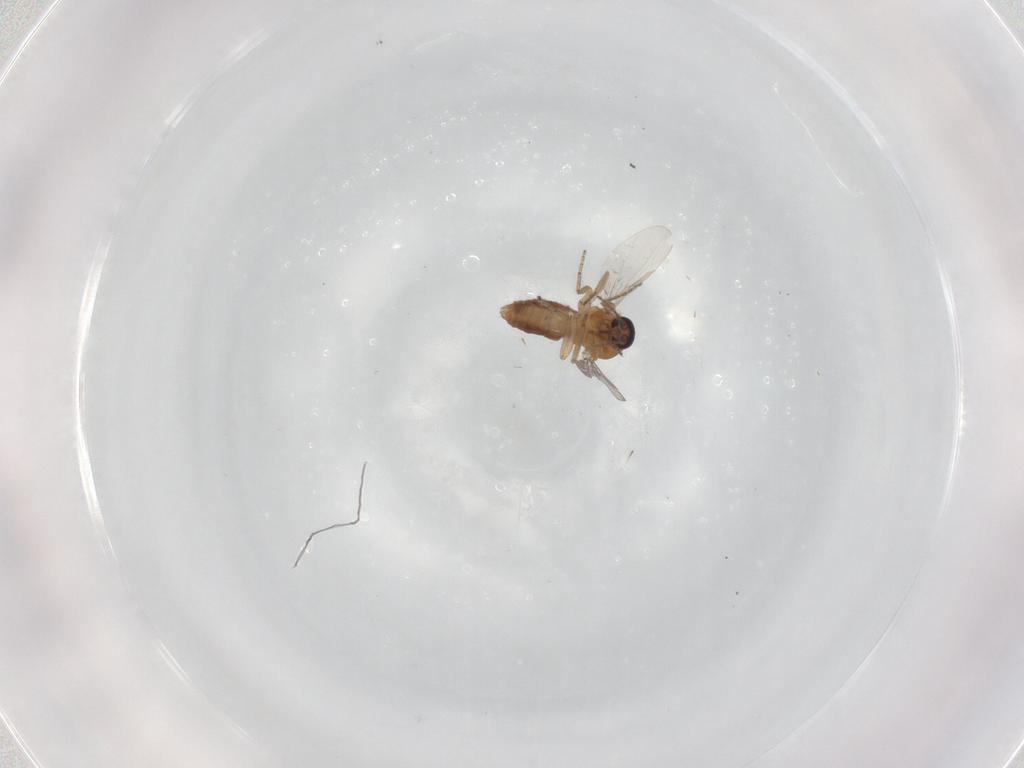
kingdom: Animalia
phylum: Arthropoda
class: Insecta
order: Diptera
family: Ceratopogonidae
